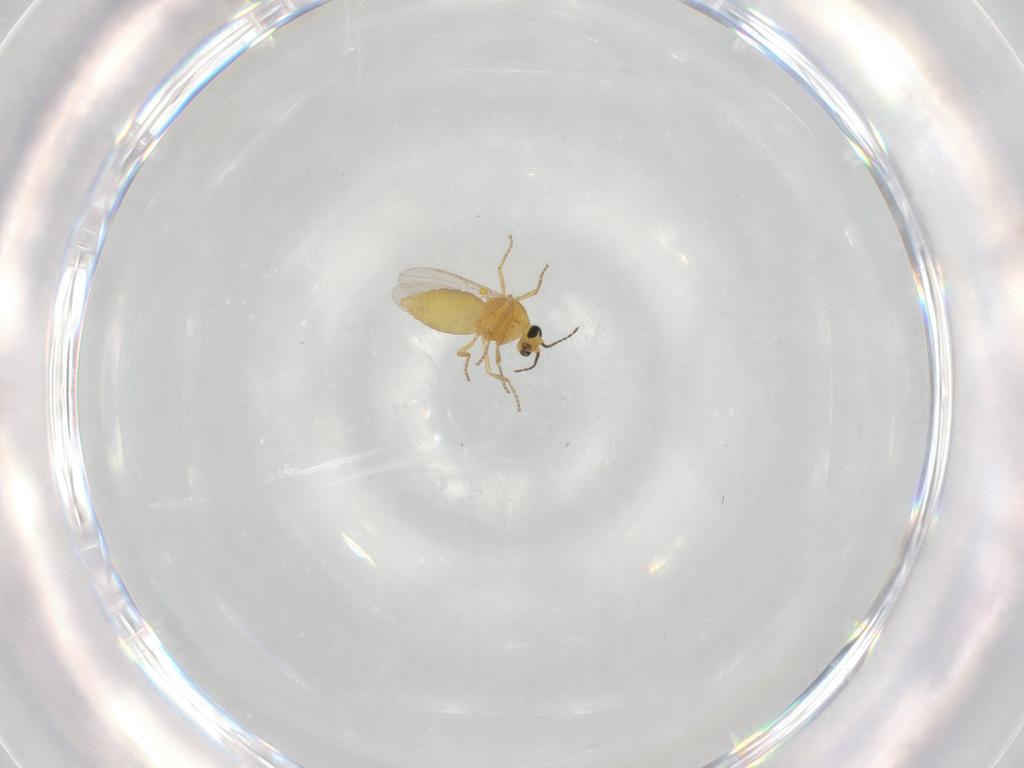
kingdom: Animalia
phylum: Arthropoda
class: Insecta
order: Diptera
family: Ceratopogonidae
